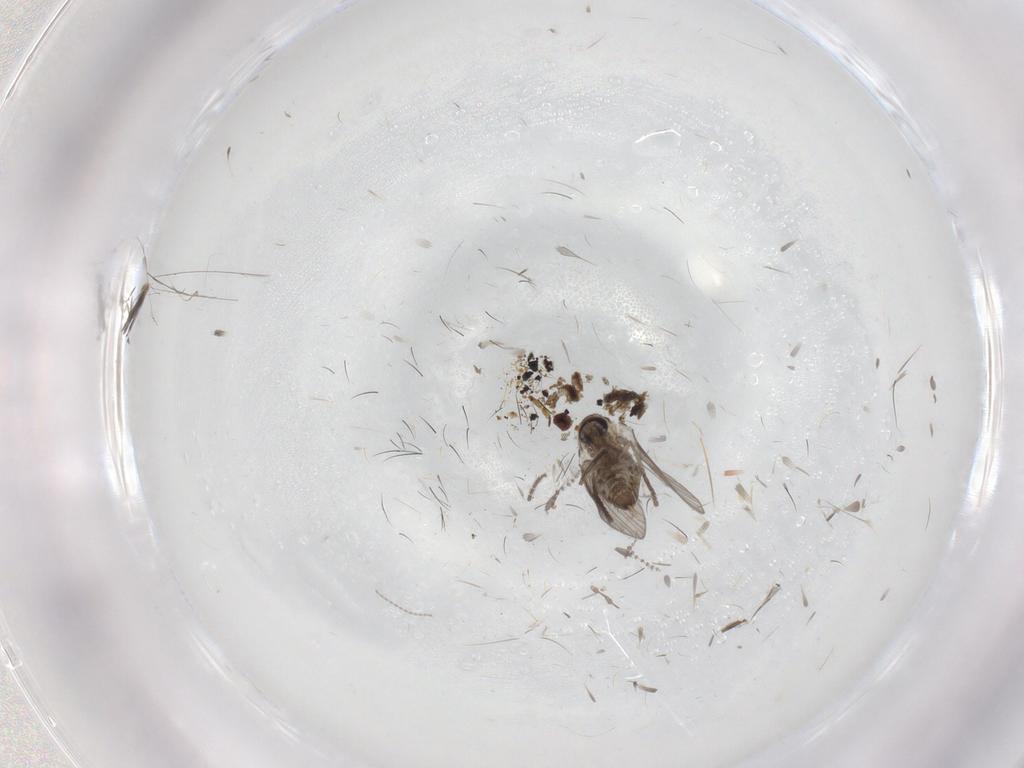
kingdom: Animalia
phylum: Arthropoda
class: Insecta
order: Diptera
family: Psychodidae
